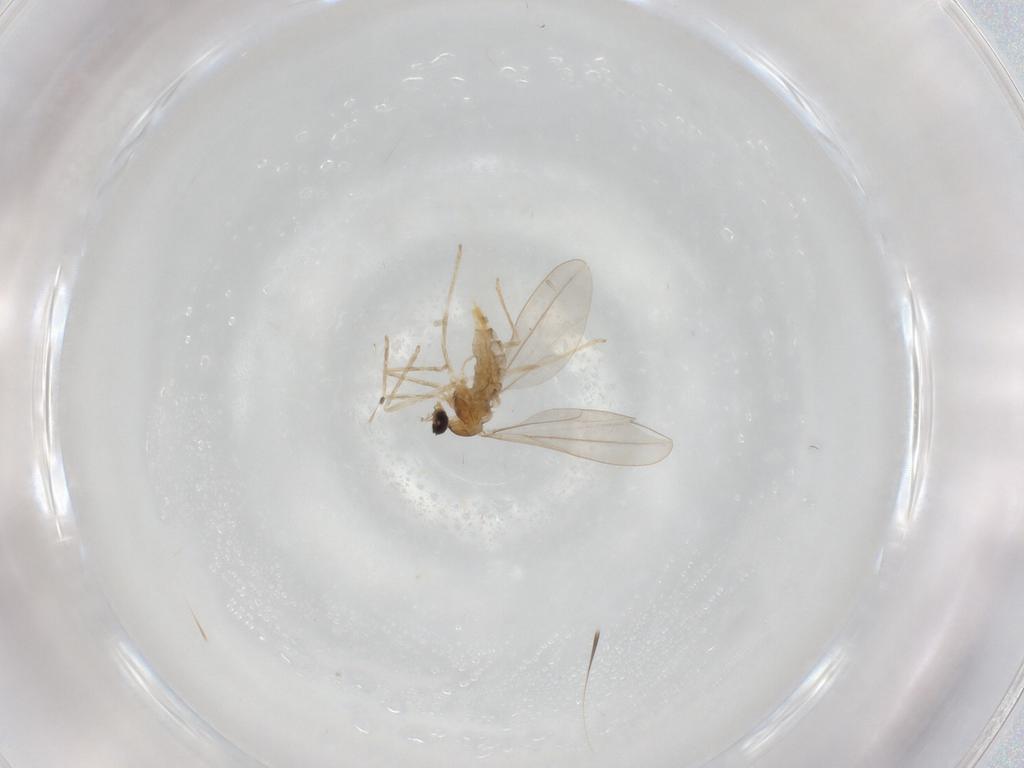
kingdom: Animalia
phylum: Arthropoda
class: Insecta
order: Diptera
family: Cecidomyiidae
